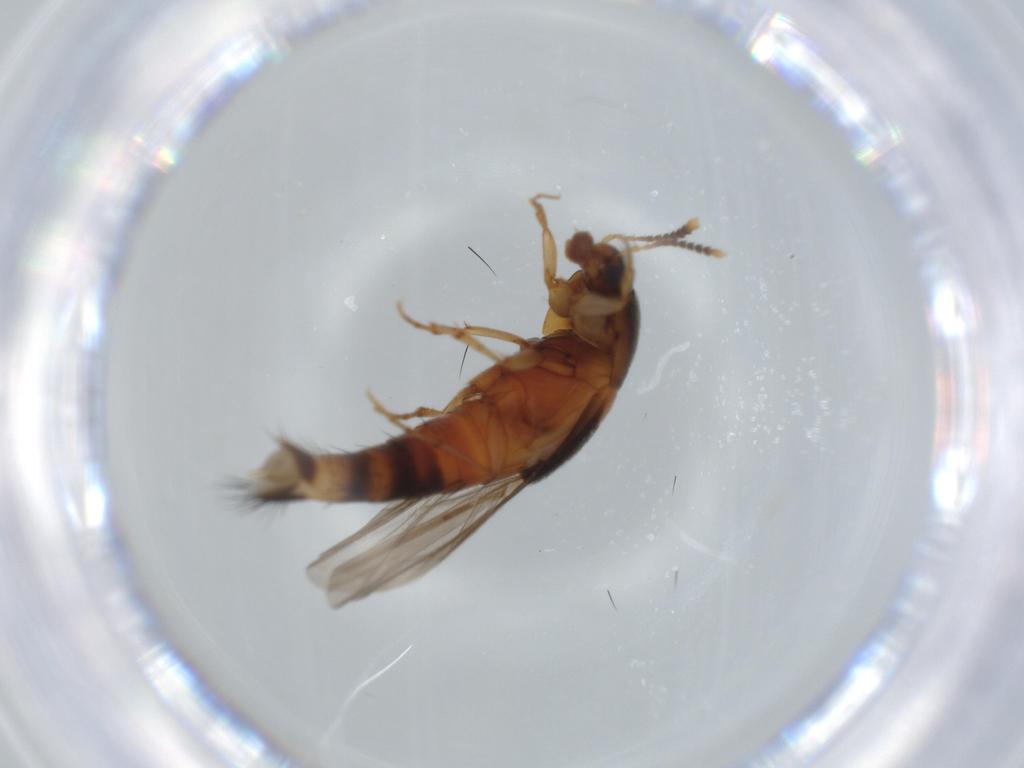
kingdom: Animalia
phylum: Arthropoda
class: Insecta
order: Coleoptera
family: Staphylinidae
